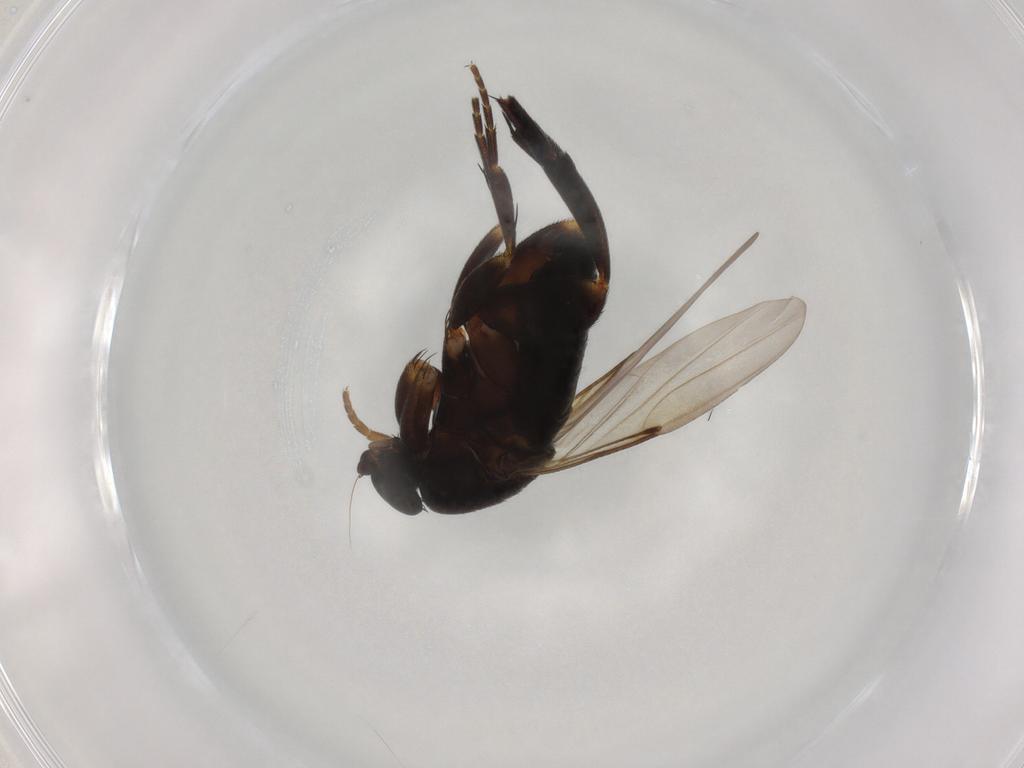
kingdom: Animalia
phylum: Arthropoda
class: Insecta
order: Diptera
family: Phoridae
